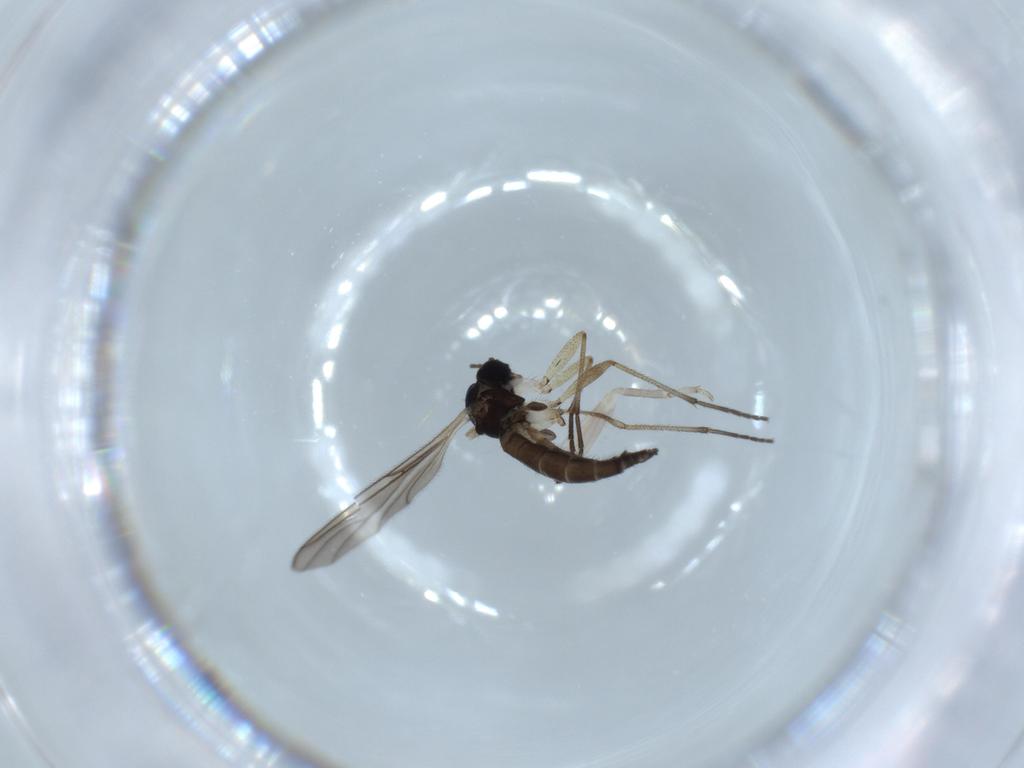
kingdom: Animalia
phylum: Arthropoda
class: Insecta
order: Diptera
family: Sciaridae
